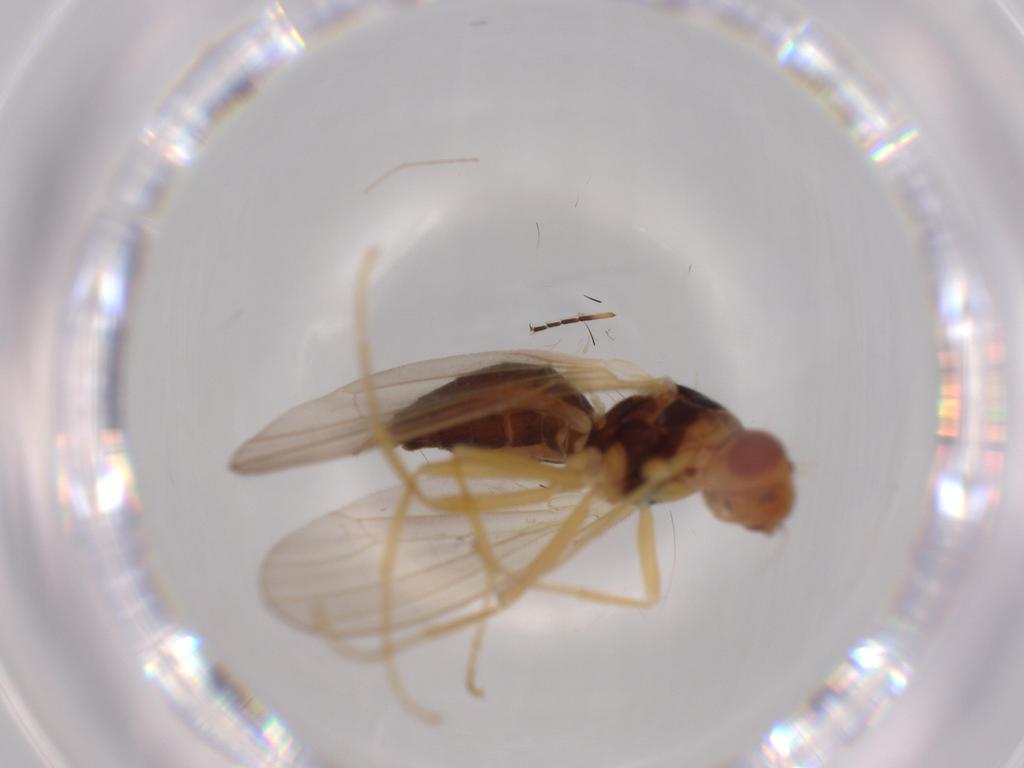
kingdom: Animalia
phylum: Arthropoda
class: Insecta
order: Diptera
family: Chironomidae
